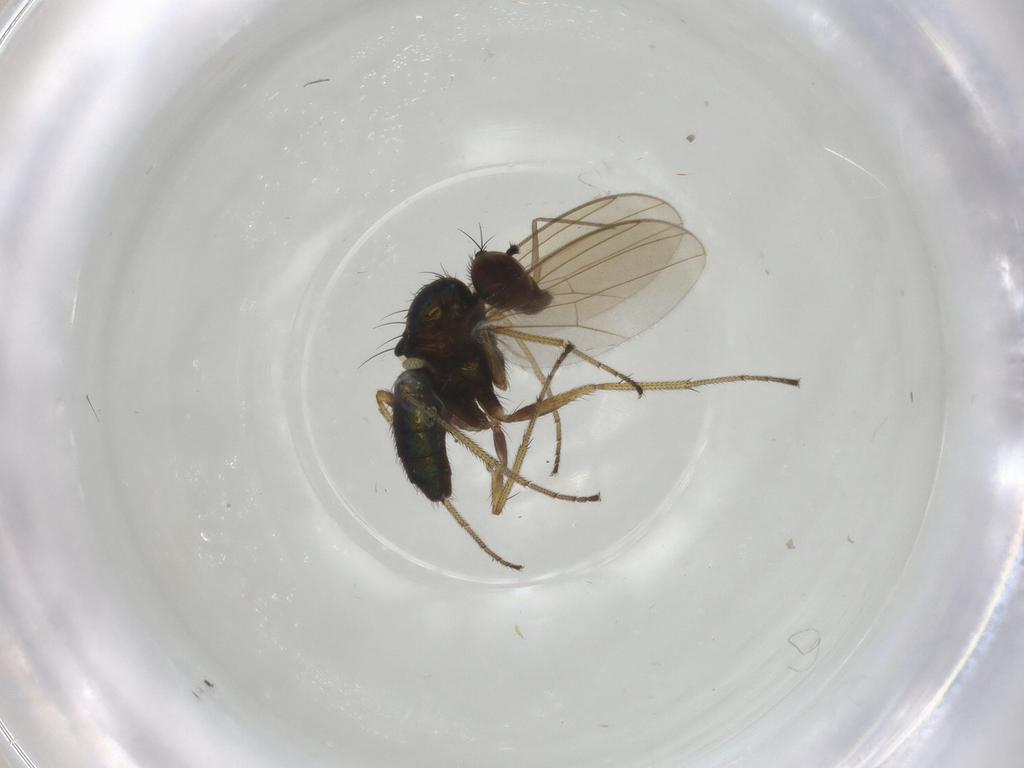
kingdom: Animalia
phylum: Arthropoda
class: Insecta
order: Diptera
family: Dolichopodidae
